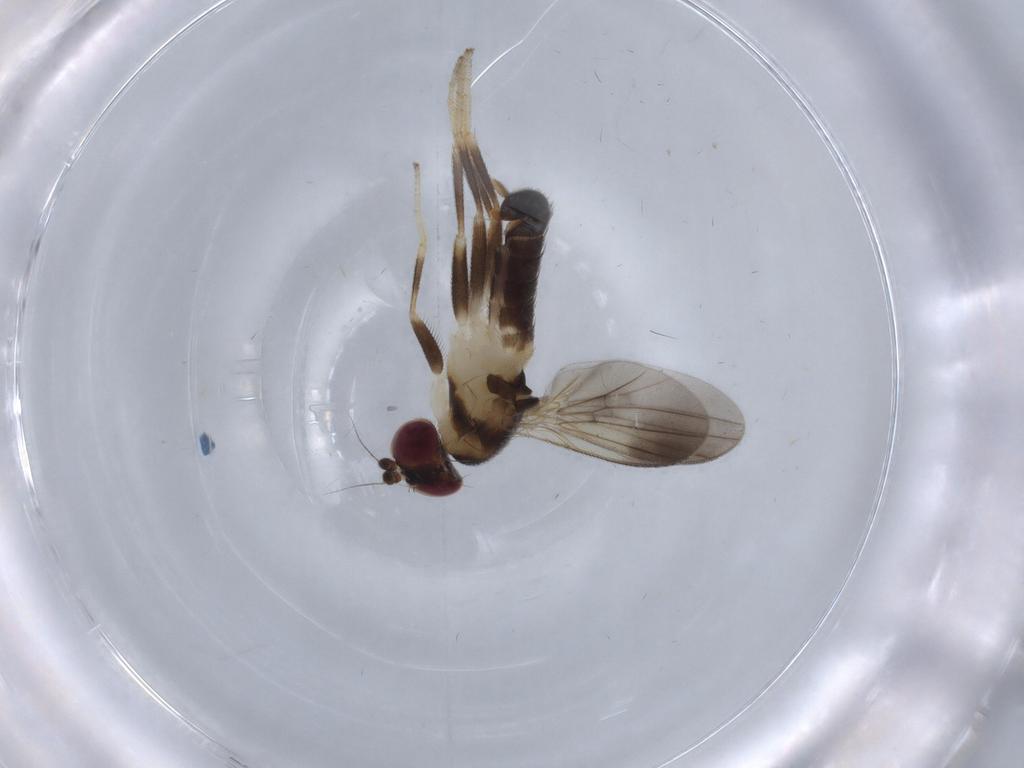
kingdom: Animalia
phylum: Arthropoda
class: Insecta
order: Diptera
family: Clusiidae
